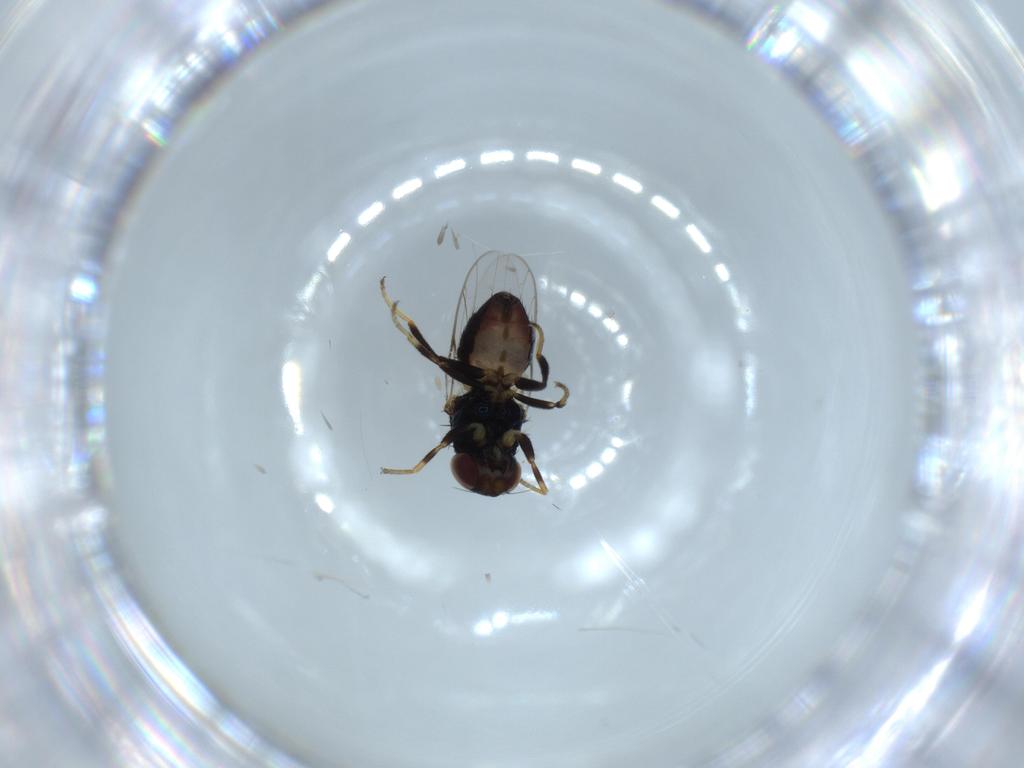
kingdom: Animalia
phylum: Arthropoda
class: Insecta
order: Diptera
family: Chloropidae
